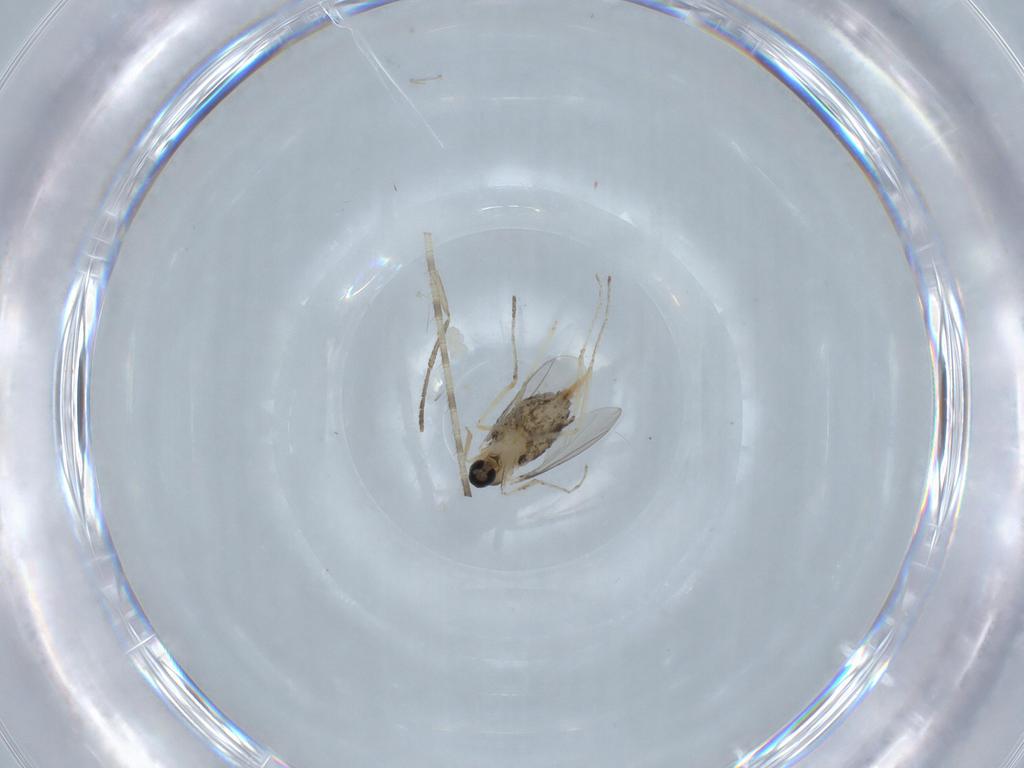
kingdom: Animalia
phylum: Arthropoda
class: Insecta
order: Diptera
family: Cecidomyiidae
